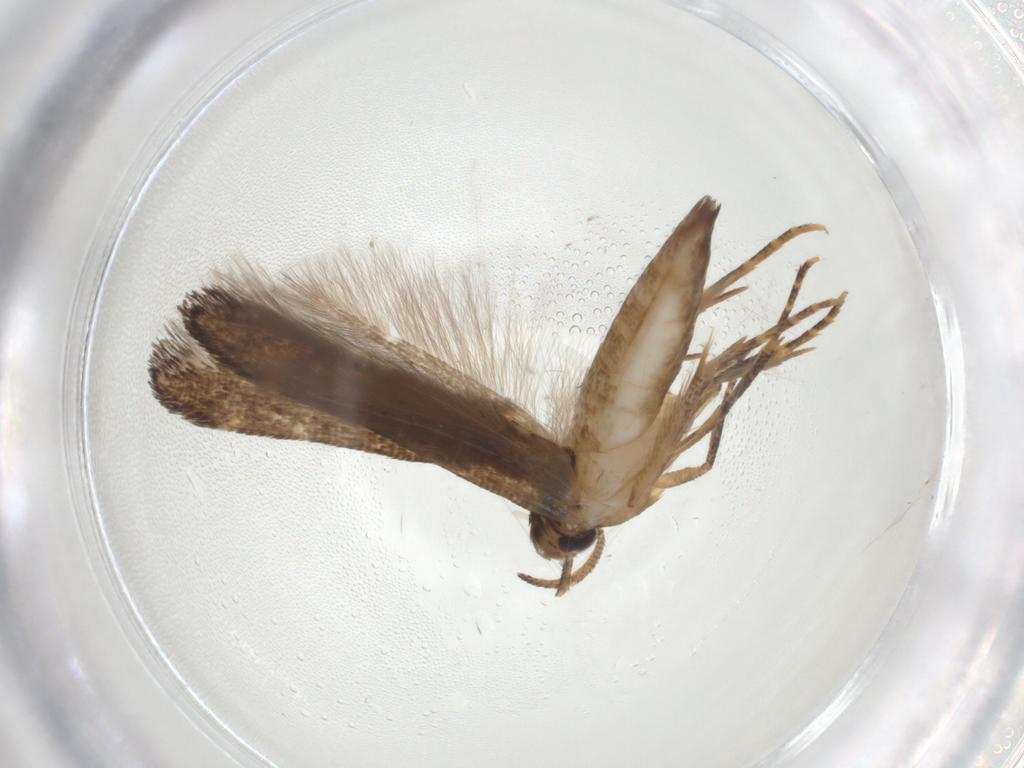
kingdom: Animalia
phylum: Arthropoda
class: Insecta
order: Lepidoptera
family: Cosmopterigidae
